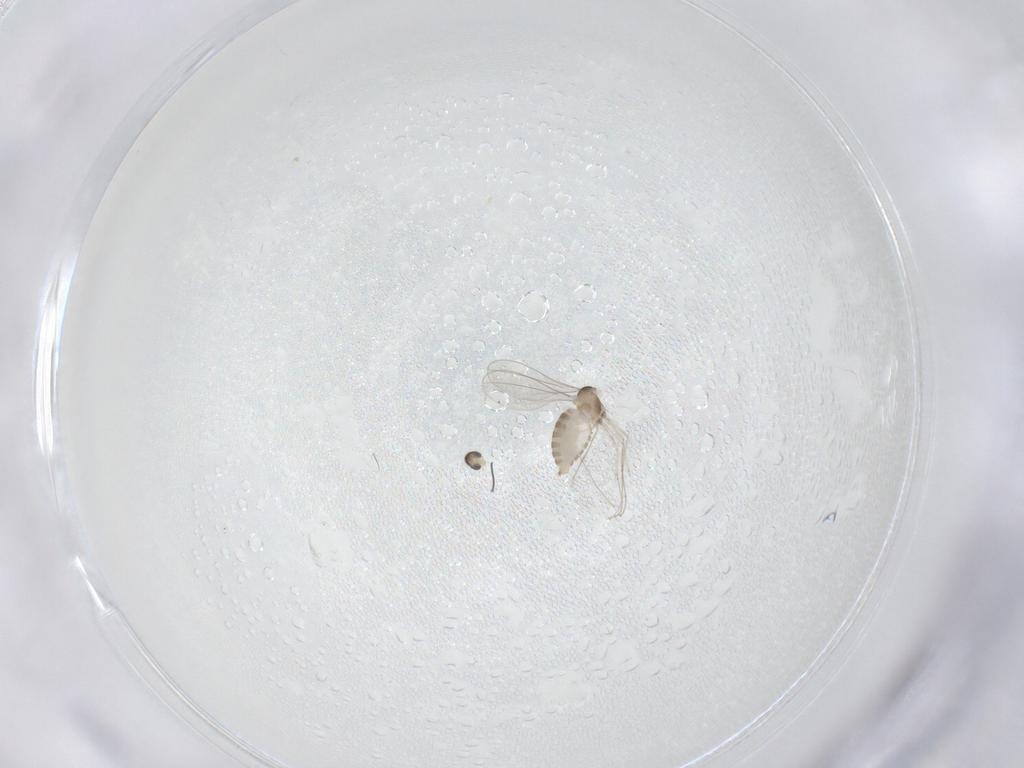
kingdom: Animalia
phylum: Arthropoda
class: Insecta
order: Diptera
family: Cecidomyiidae
